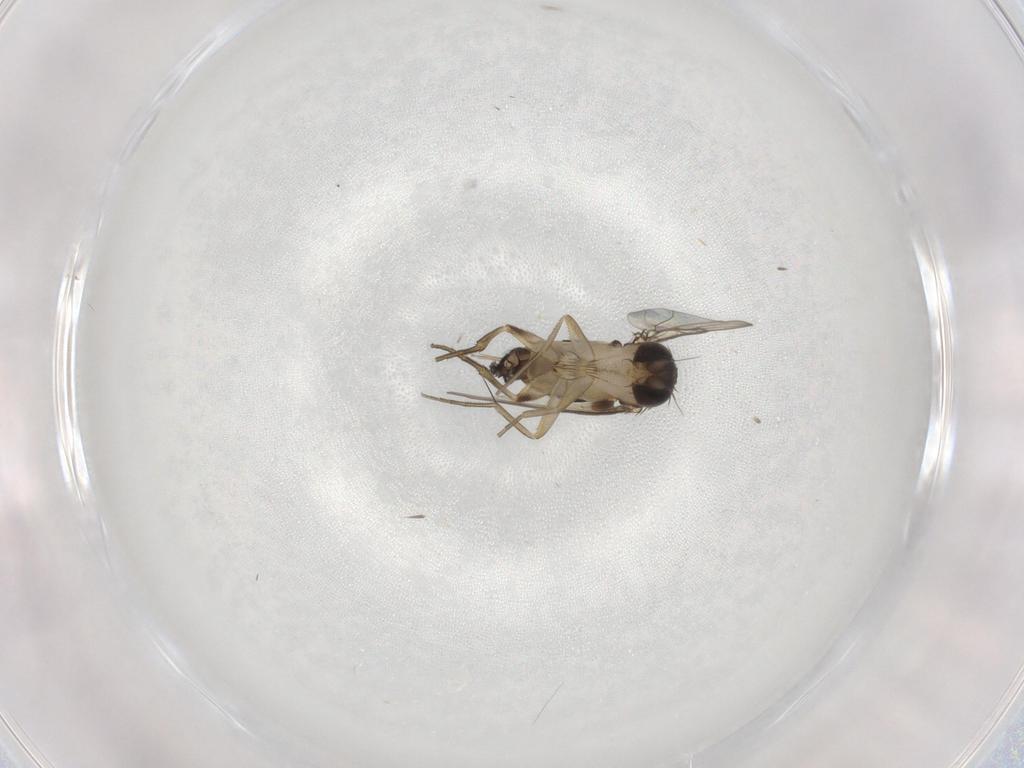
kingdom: Animalia
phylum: Arthropoda
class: Insecta
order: Diptera
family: Phoridae
